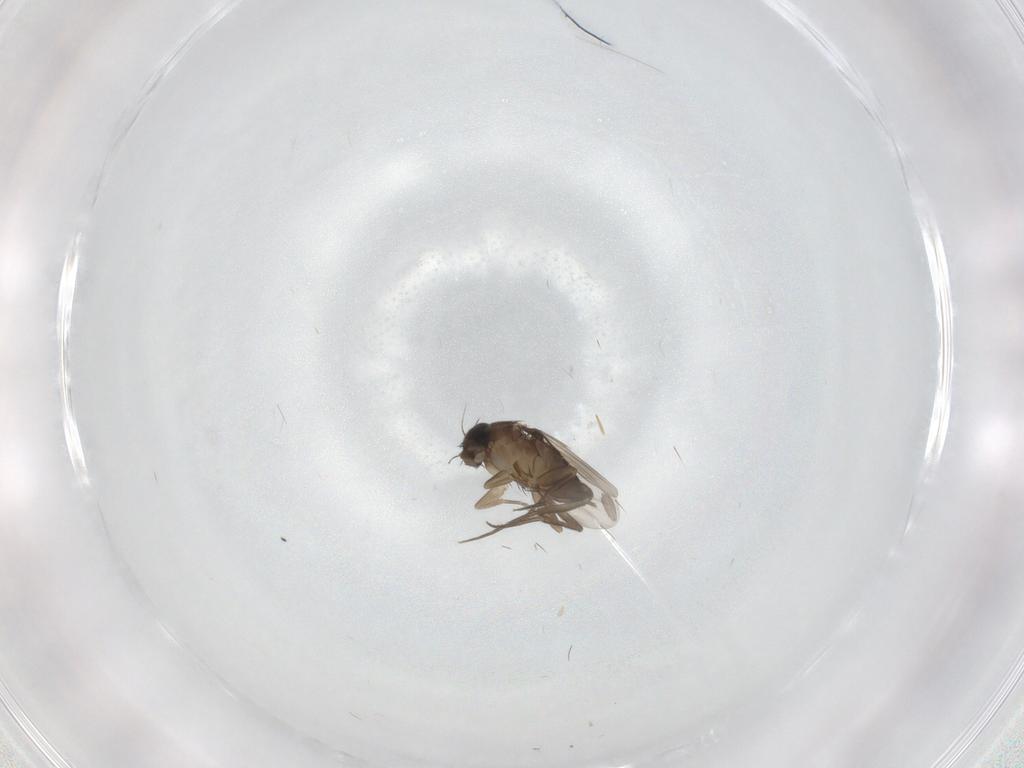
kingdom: Animalia
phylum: Arthropoda
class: Insecta
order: Diptera
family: Phoridae
